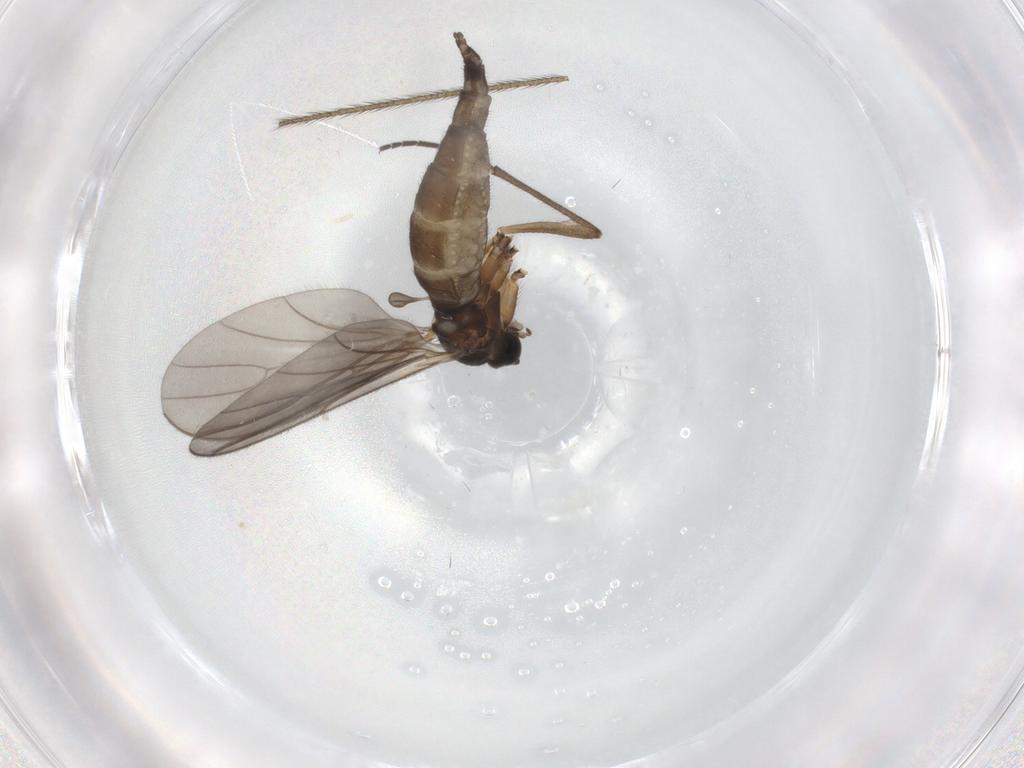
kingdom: Animalia
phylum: Arthropoda
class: Insecta
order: Diptera
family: Sciaridae
